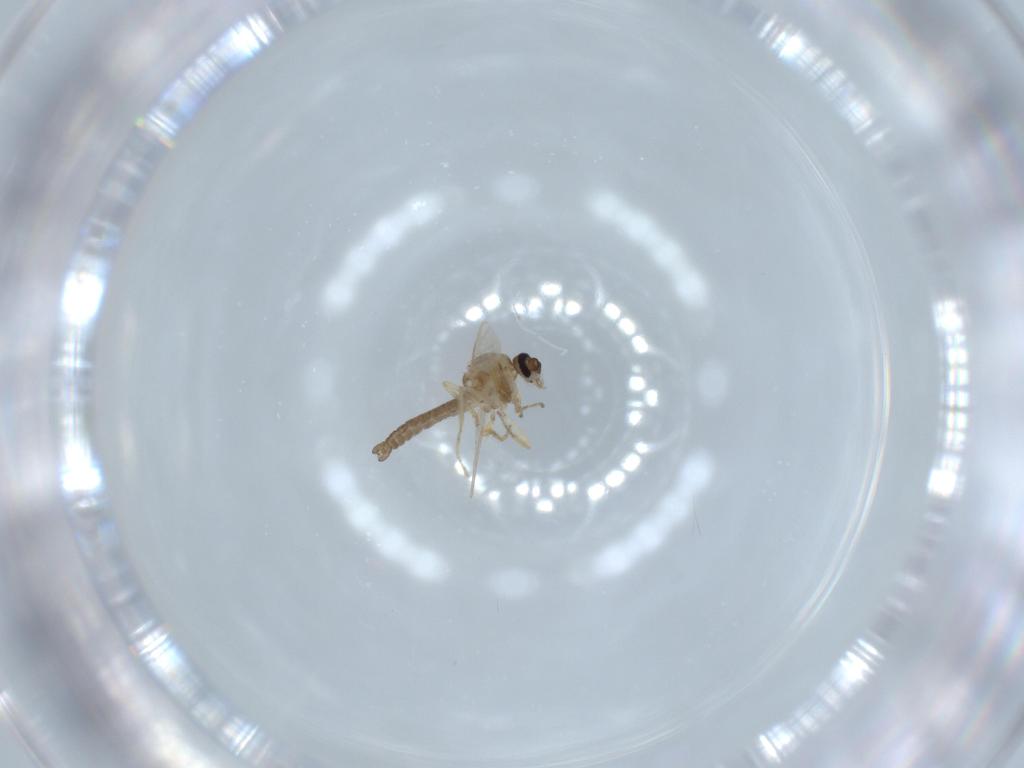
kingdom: Animalia
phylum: Arthropoda
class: Insecta
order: Diptera
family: Ceratopogonidae
